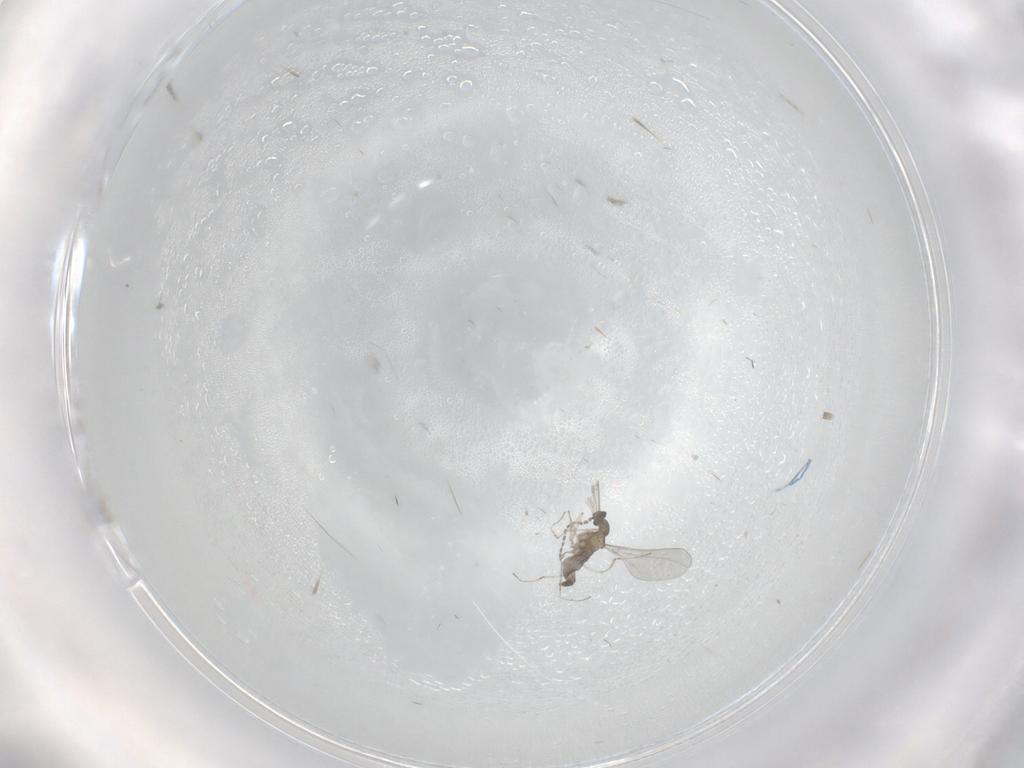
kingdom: Animalia
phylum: Arthropoda
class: Insecta
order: Diptera
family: Cecidomyiidae
